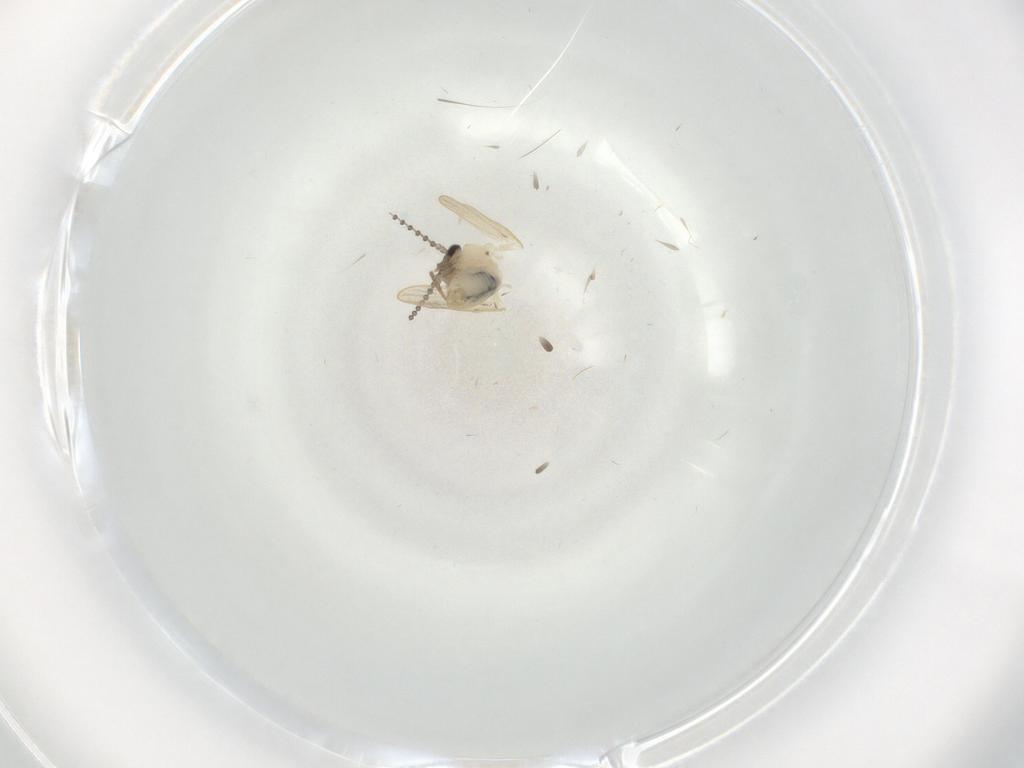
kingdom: Animalia
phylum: Arthropoda
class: Insecta
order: Diptera
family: Psychodidae
